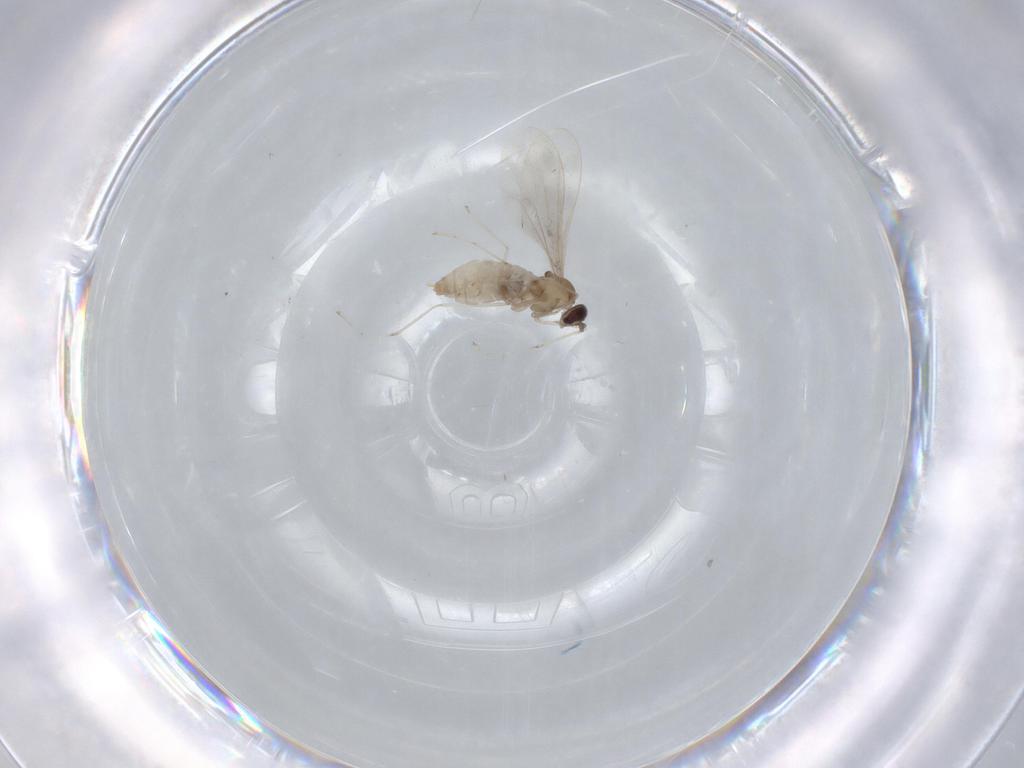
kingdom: Animalia
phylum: Arthropoda
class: Insecta
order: Diptera
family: Cecidomyiidae
